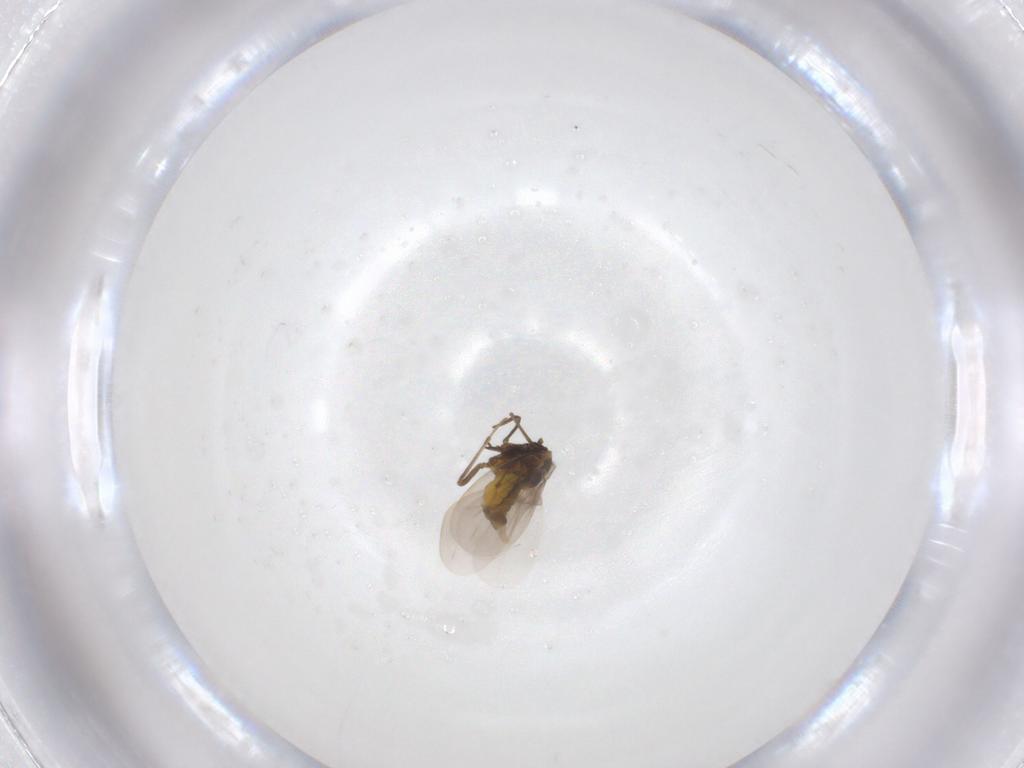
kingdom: Animalia
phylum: Arthropoda
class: Insecta
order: Hemiptera
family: Aleyrodidae
